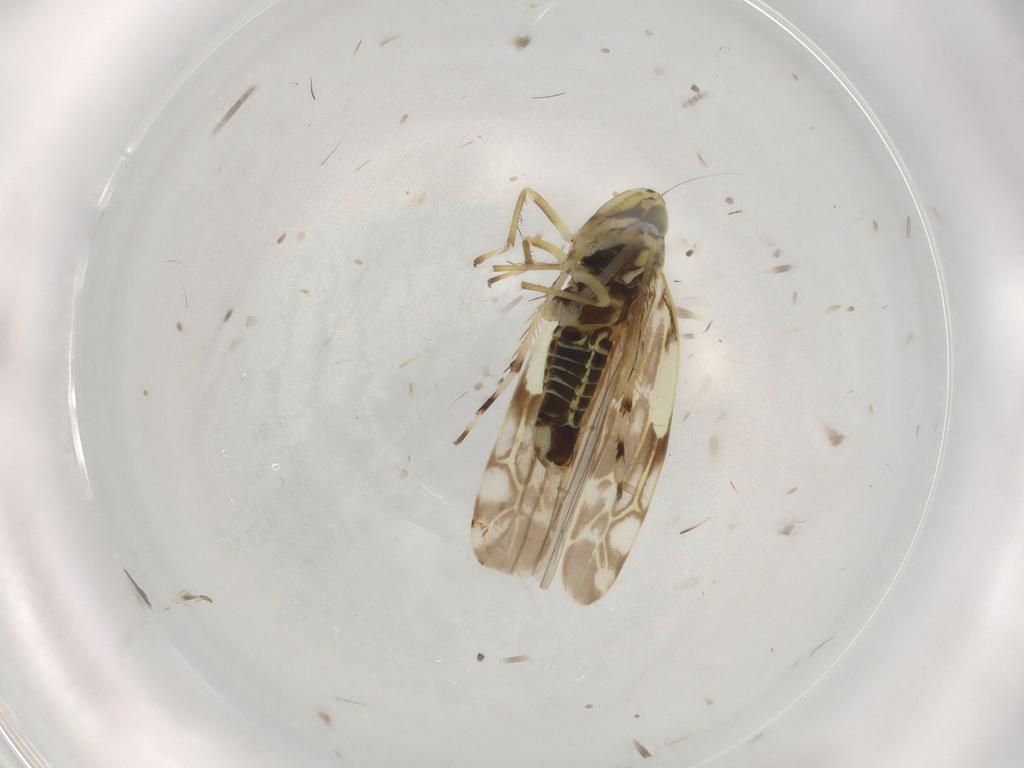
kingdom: Animalia
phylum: Arthropoda
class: Insecta
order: Hemiptera
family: Cicadellidae
